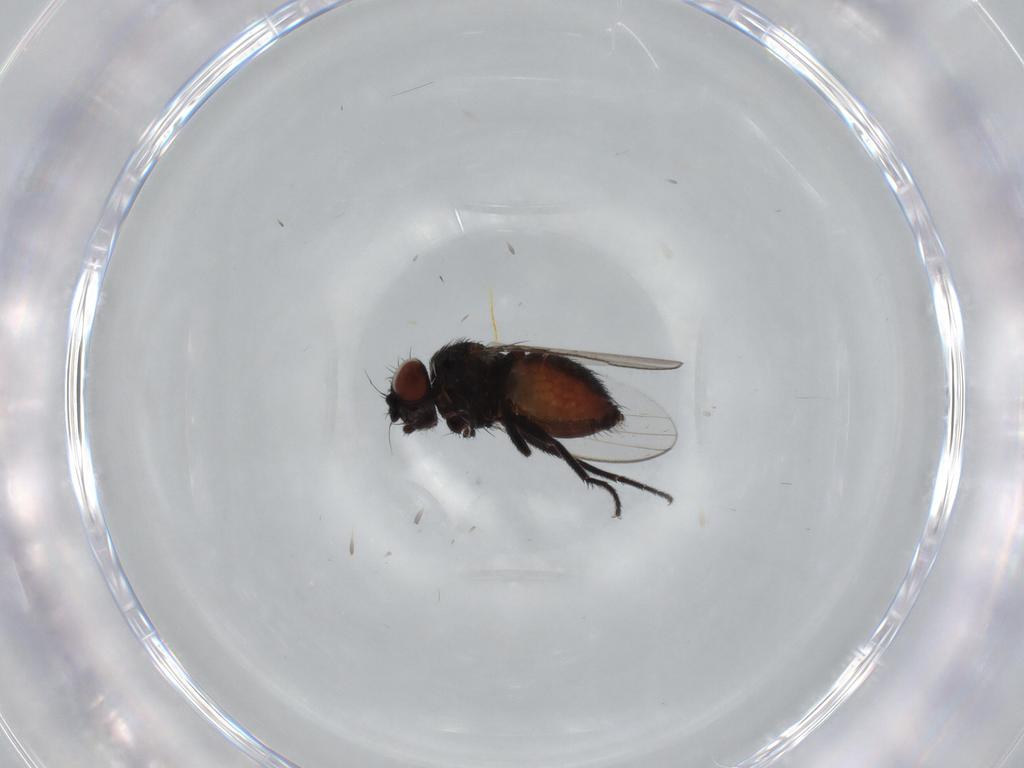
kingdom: Animalia
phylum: Arthropoda
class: Insecta
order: Diptera
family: Milichiidae
